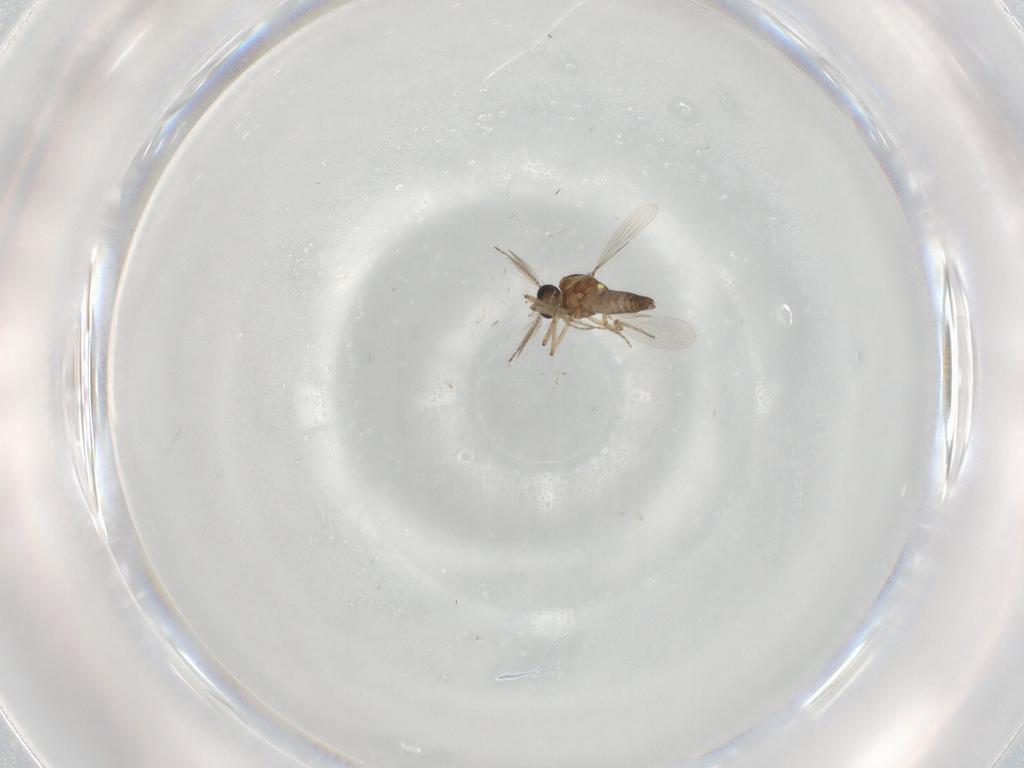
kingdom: Animalia
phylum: Arthropoda
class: Insecta
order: Diptera
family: Ceratopogonidae
